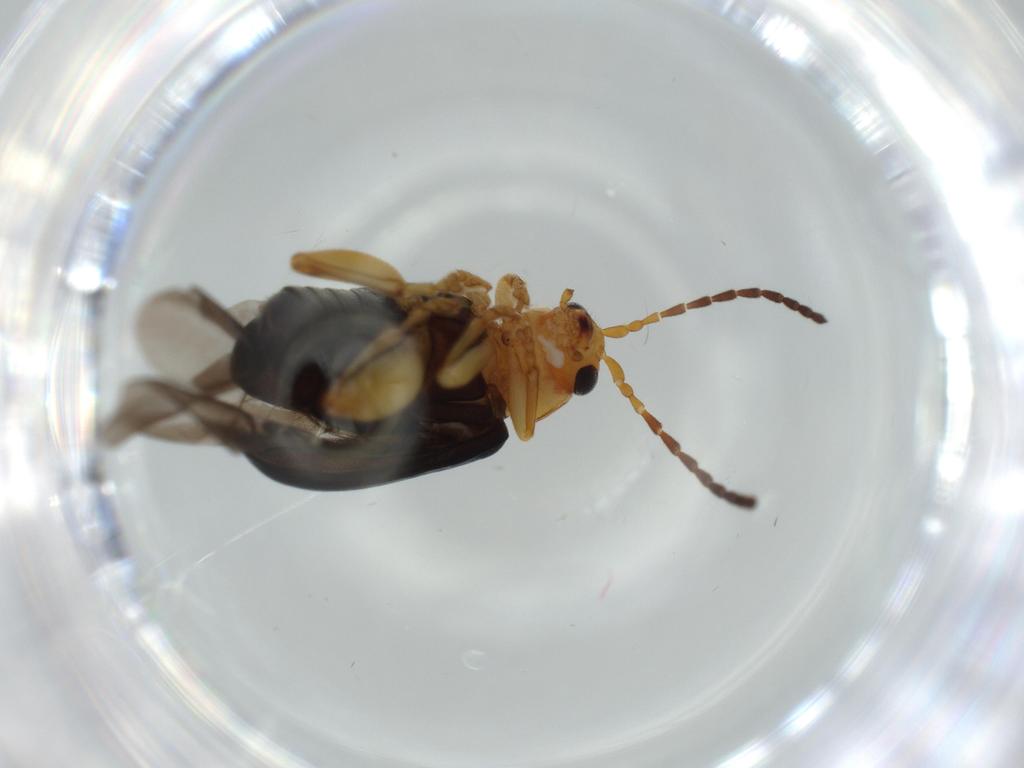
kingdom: Animalia
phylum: Arthropoda
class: Insecta
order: Coleoptera
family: Chrysomelidae
